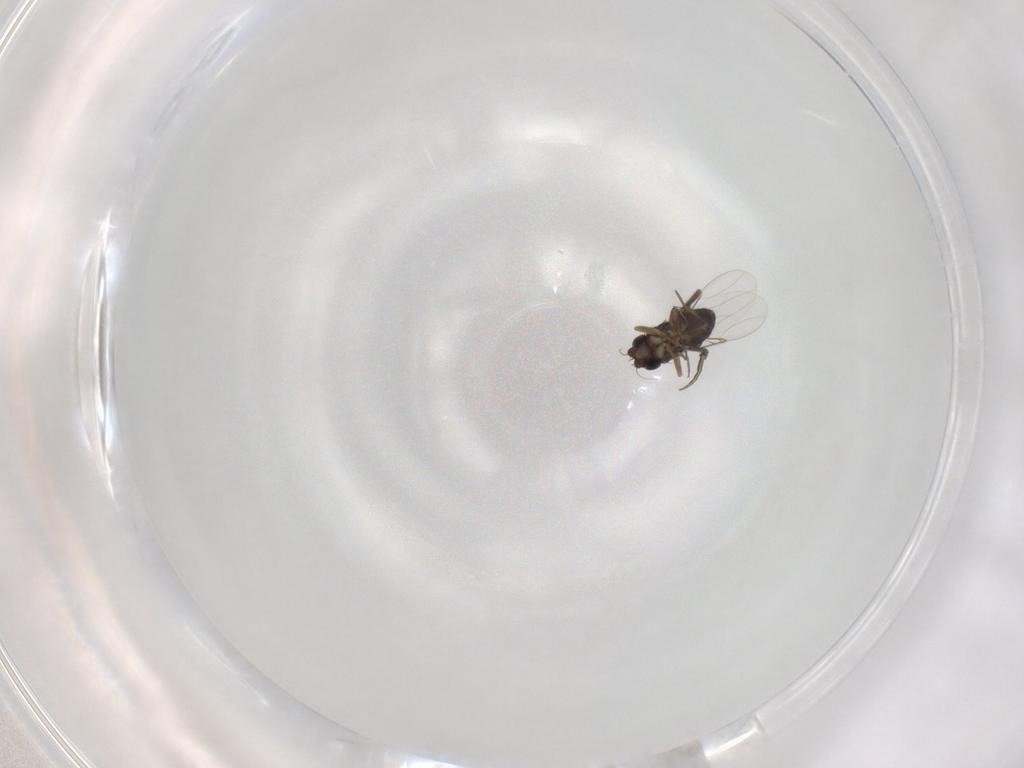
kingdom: Animalia
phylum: Arthropoda
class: Insecta
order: Diptera
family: Phoridae
